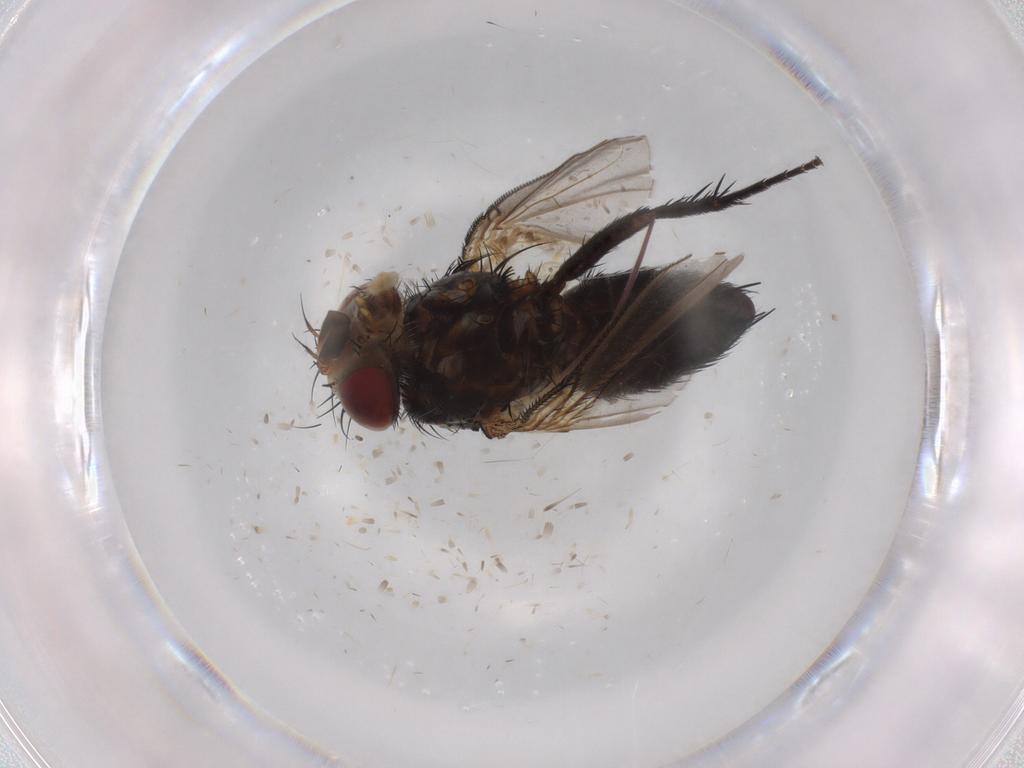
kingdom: Animalia
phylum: Arthropoda
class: Insecta
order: Diptera
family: Tachinidae
